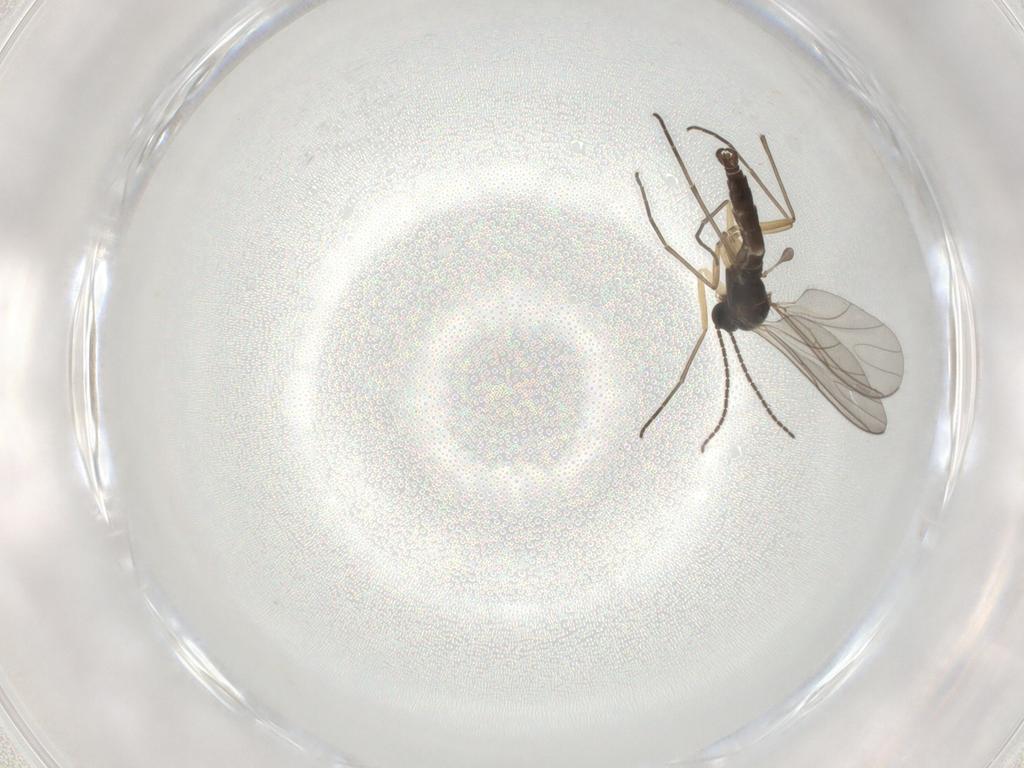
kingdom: Animalia
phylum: Arthropoda
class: Insecta
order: Diptera
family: Sciaridae
